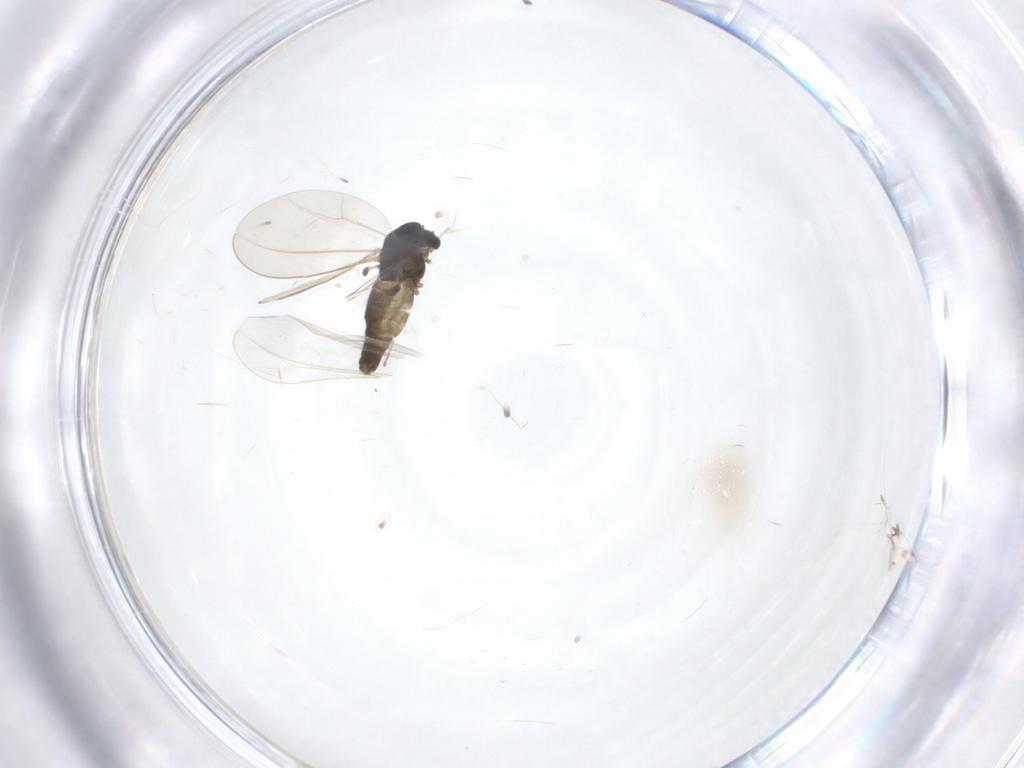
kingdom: Animalia
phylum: Arthropoda
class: Insecta
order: Diptera
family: Chironomidae
